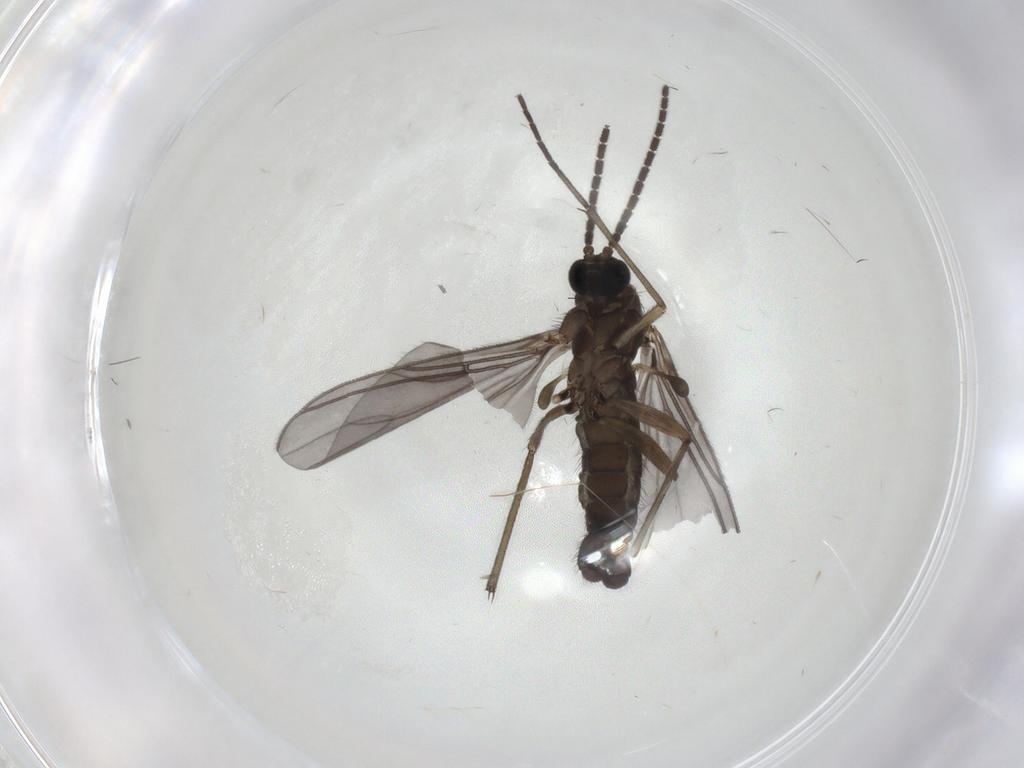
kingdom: Animalia
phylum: Arthropoda
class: Insecta
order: Diptera
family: Sciaridae
